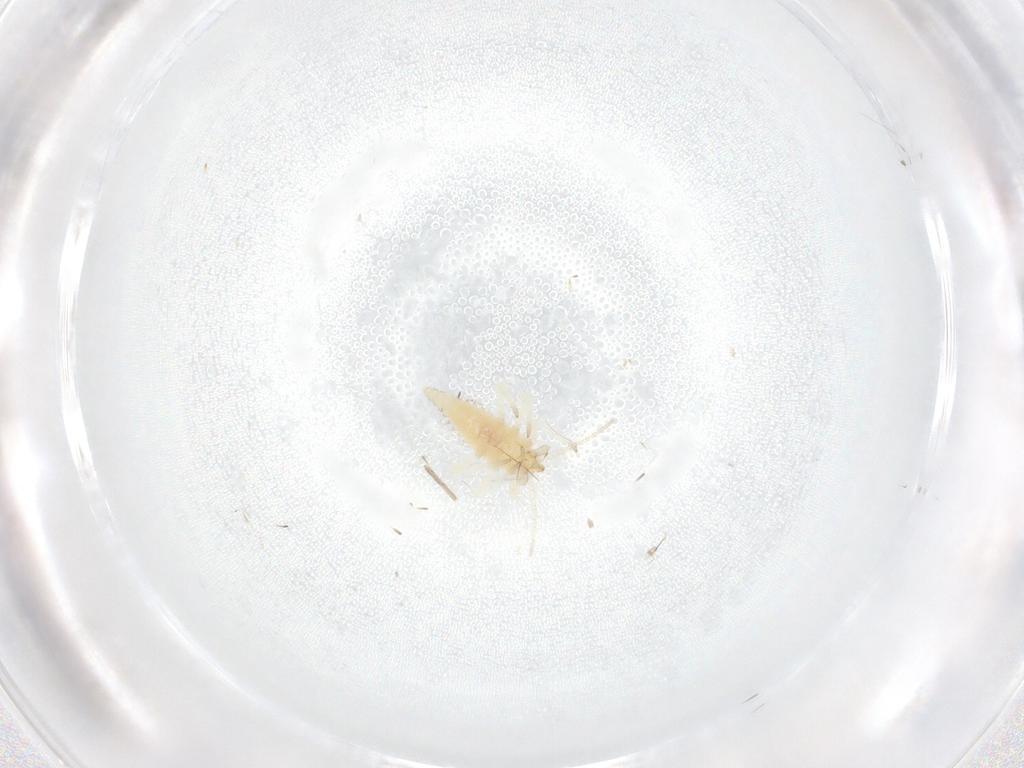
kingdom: Animalia
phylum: Arthropoda
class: Insecta
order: Neuroptera
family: Coniopterygidae
